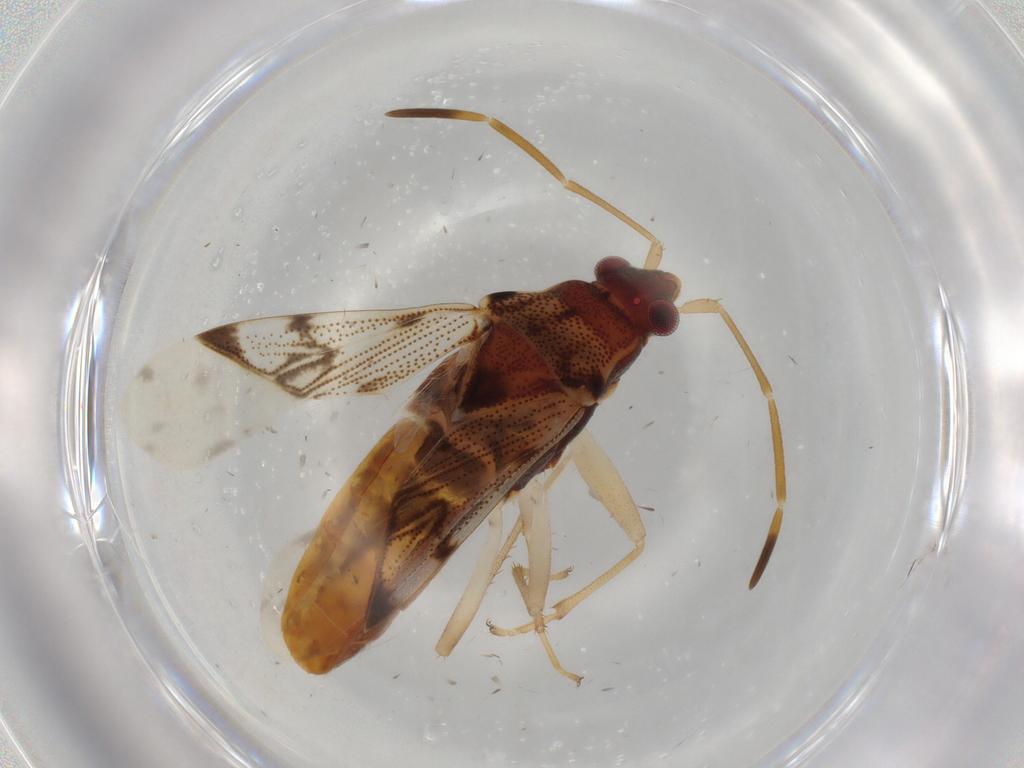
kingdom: Animalia
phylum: Arthropoda
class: Insecta
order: Hemiptera
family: Rhyparochromidae
